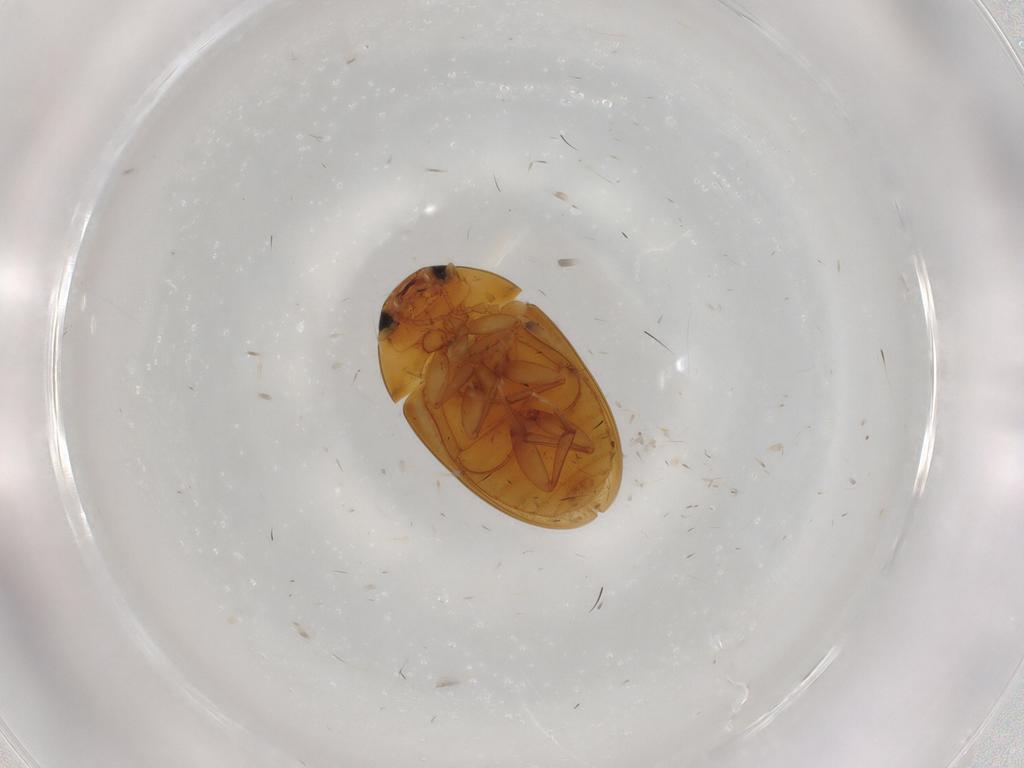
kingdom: Animalia
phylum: Arthropoda
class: Insecta
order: Coleoptera
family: Phalacridae
